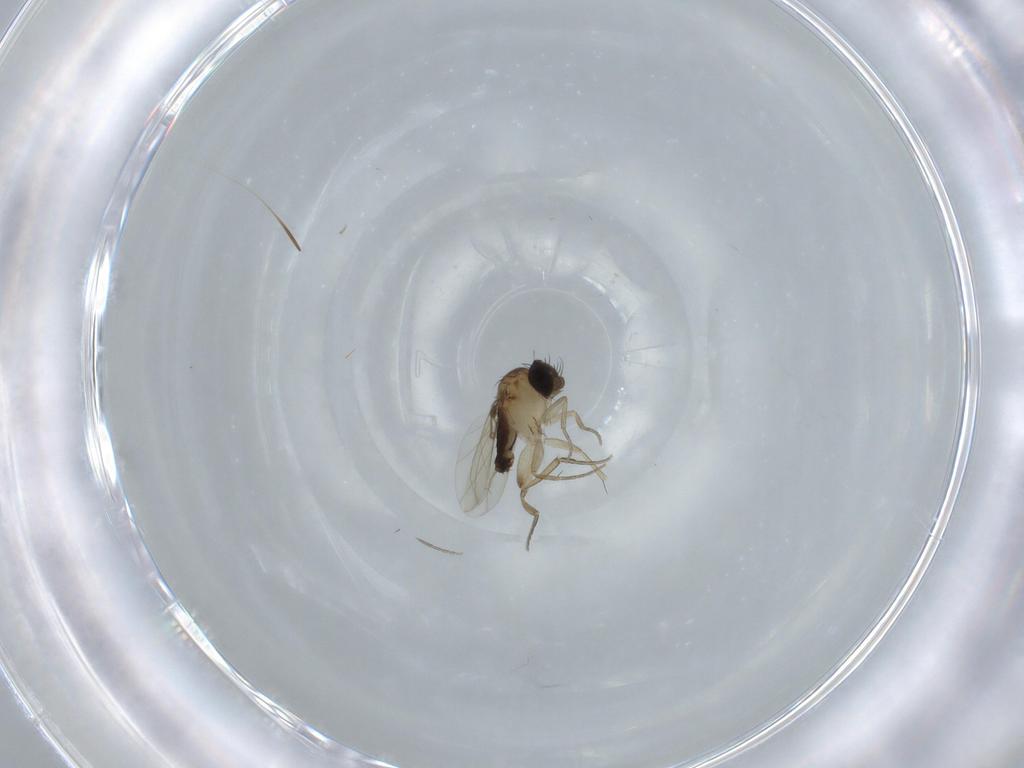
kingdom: Animalia
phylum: Arthropoda
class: Insecta
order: Diptera
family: Phoridae
